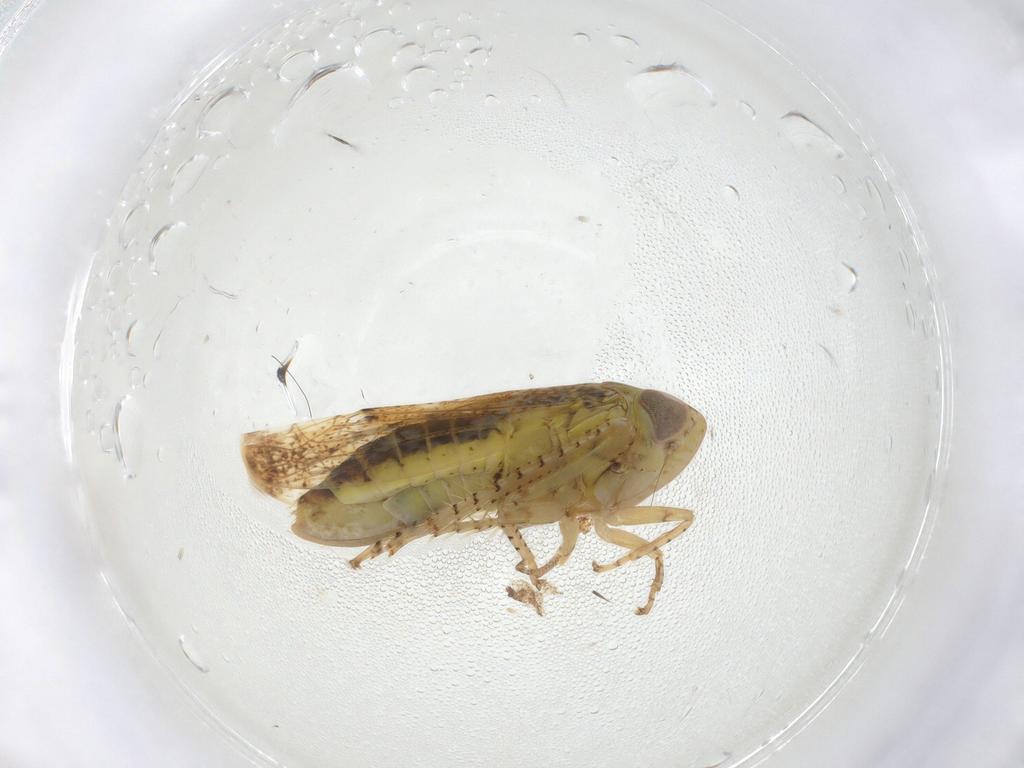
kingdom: Animalia
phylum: Arthropoda
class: Insecta
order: Hemiptera
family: Cicadellidae
